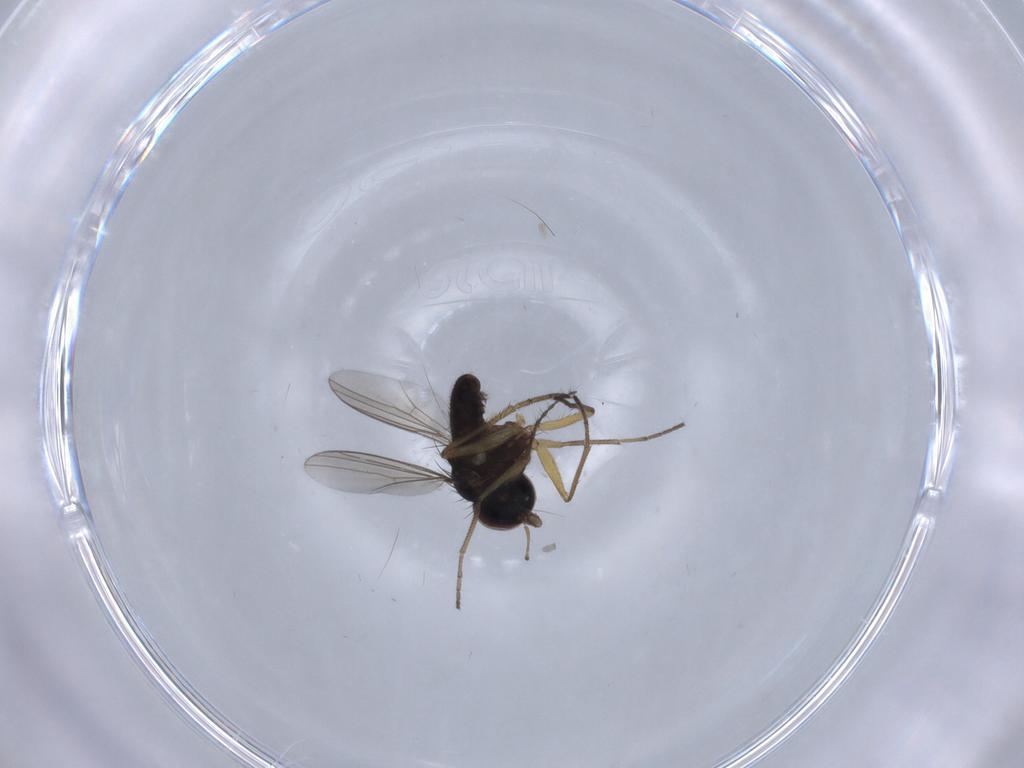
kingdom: Animalia
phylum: Arthropoda
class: Insecta
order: Diptera
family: Dolichopodidae
